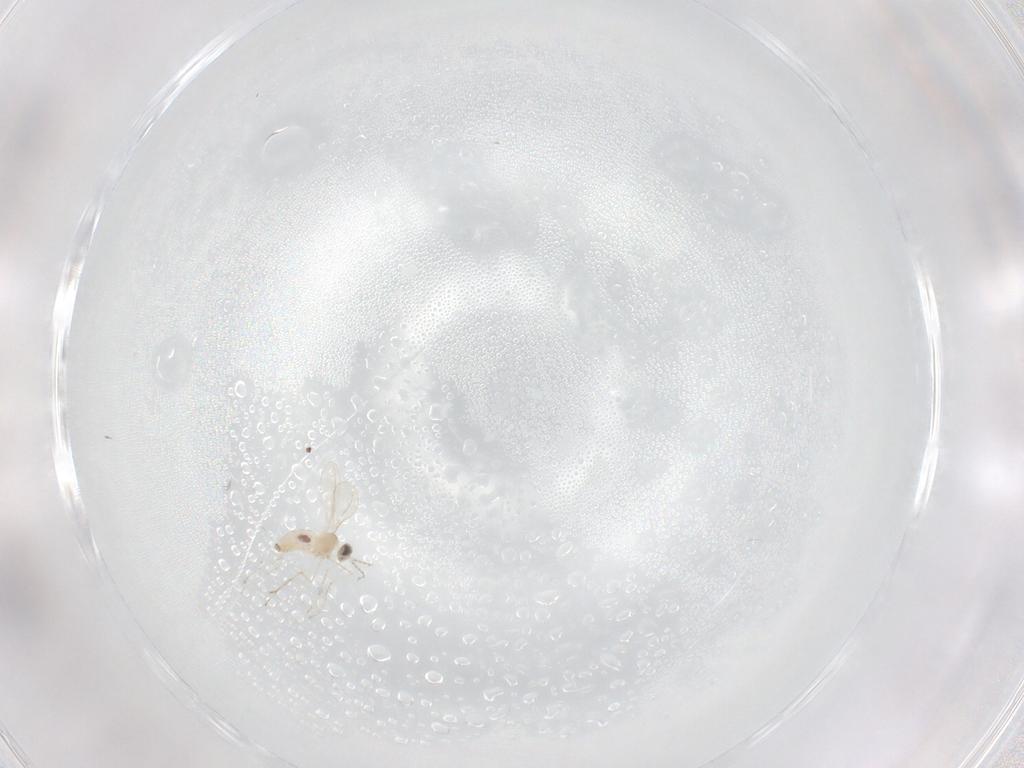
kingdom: Animalia
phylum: Arthropoda
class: Insecta
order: Diptera
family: Cecidomyiidae
